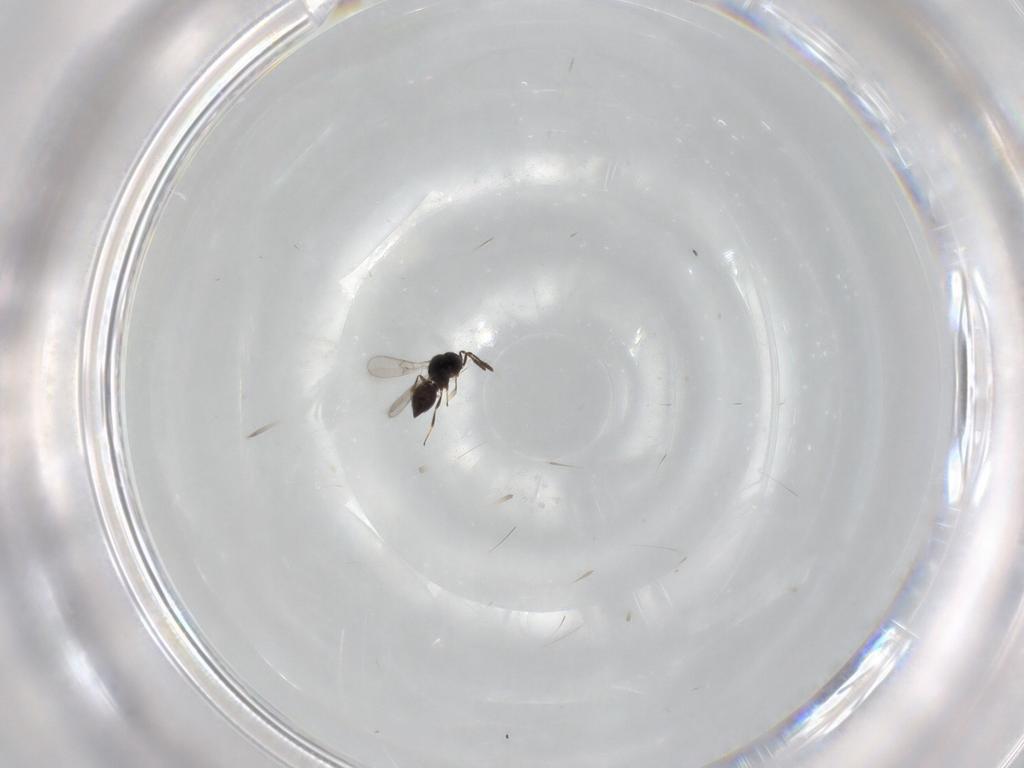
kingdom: Animalia
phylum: Arthropoda
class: Insecta
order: Hymenoptera
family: Scelionidae
